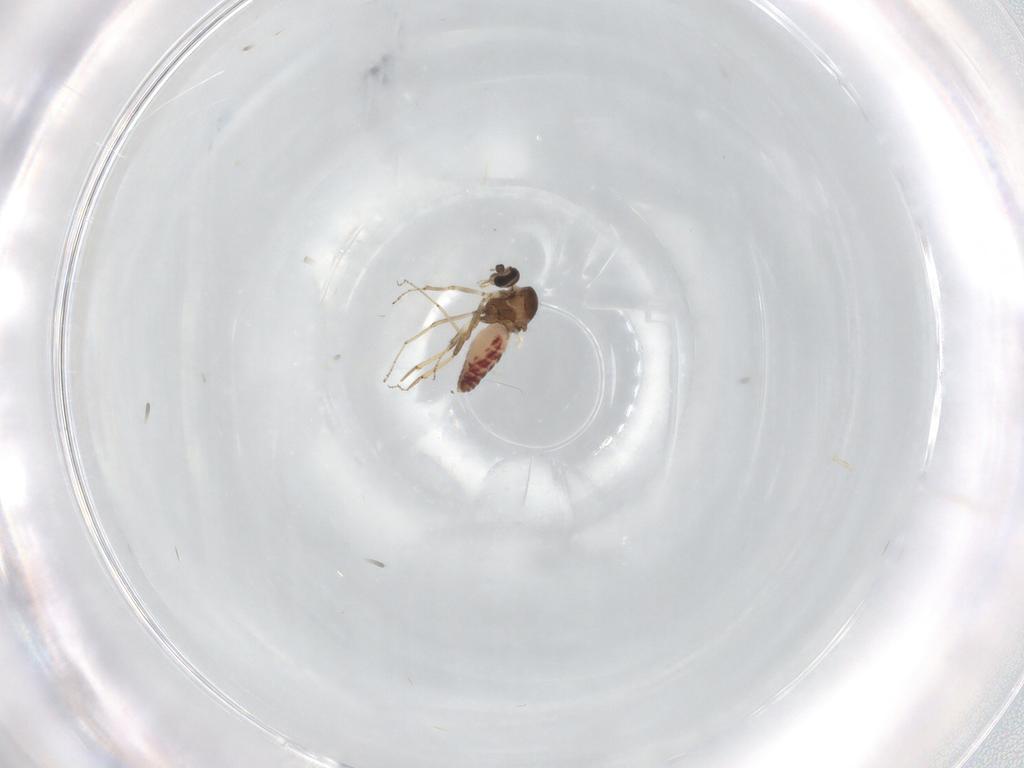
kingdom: Animalia
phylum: Arthropoda
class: Insecta
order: Diptera
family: Ceratopogonidae
